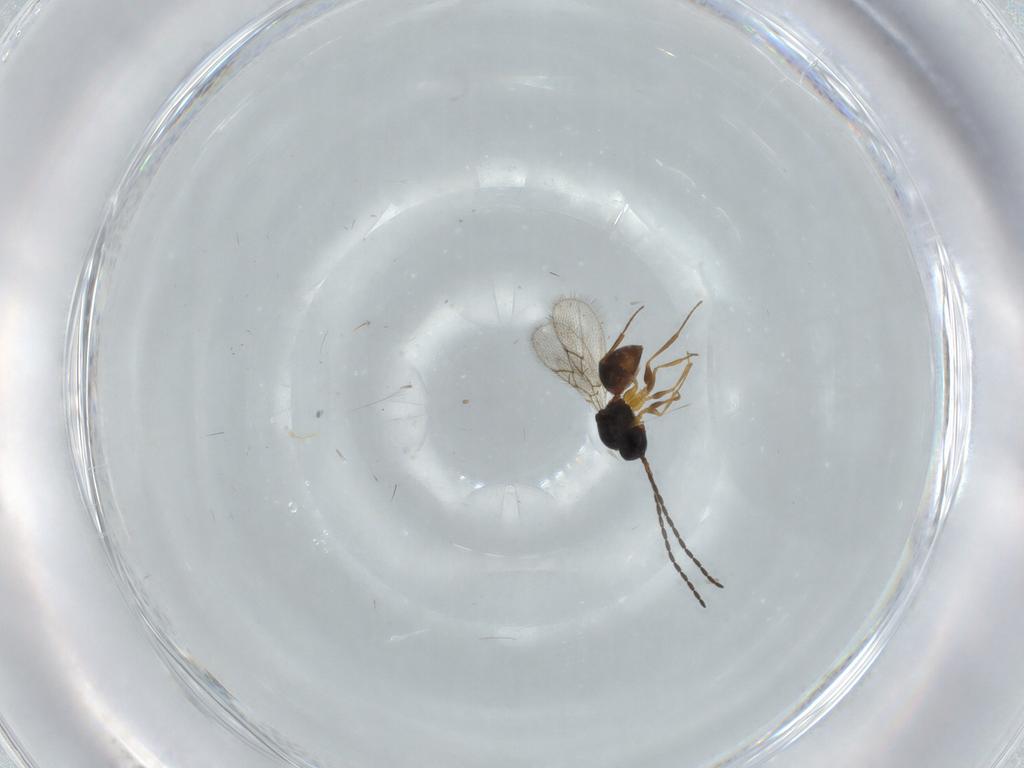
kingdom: Animalia
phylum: Arthropoda
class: Insecta
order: Hymenoptera
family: Figitidae
